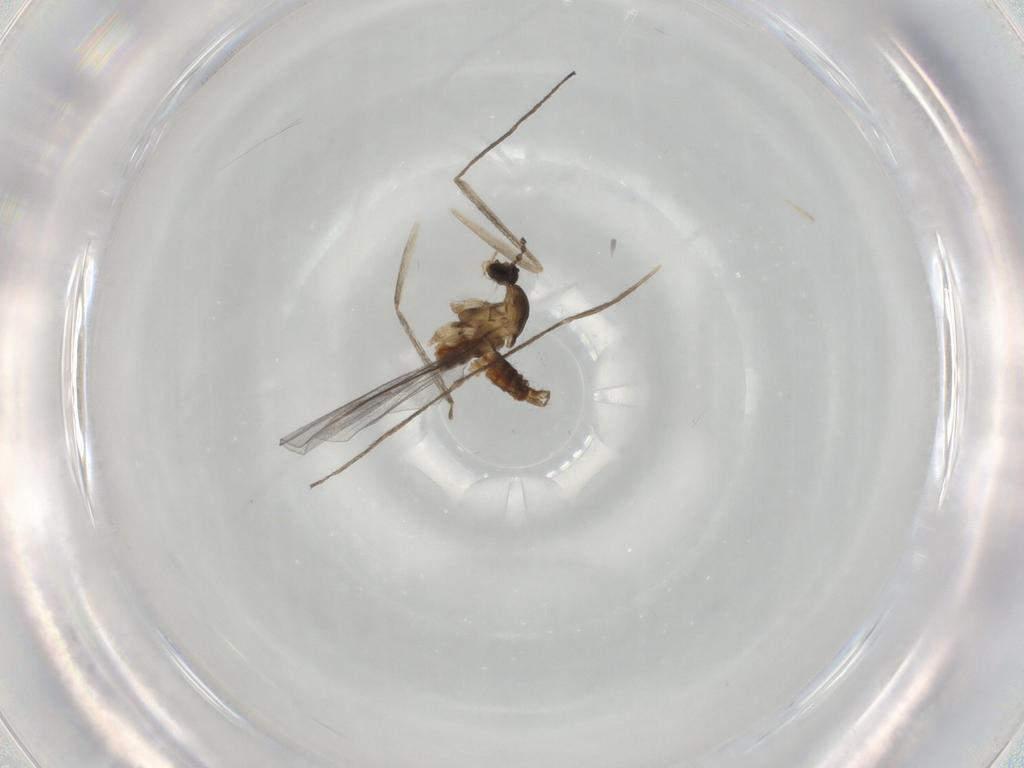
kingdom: Animalia
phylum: Arthropoda
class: Insecta
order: Diptera
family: Cecidomyiidae
